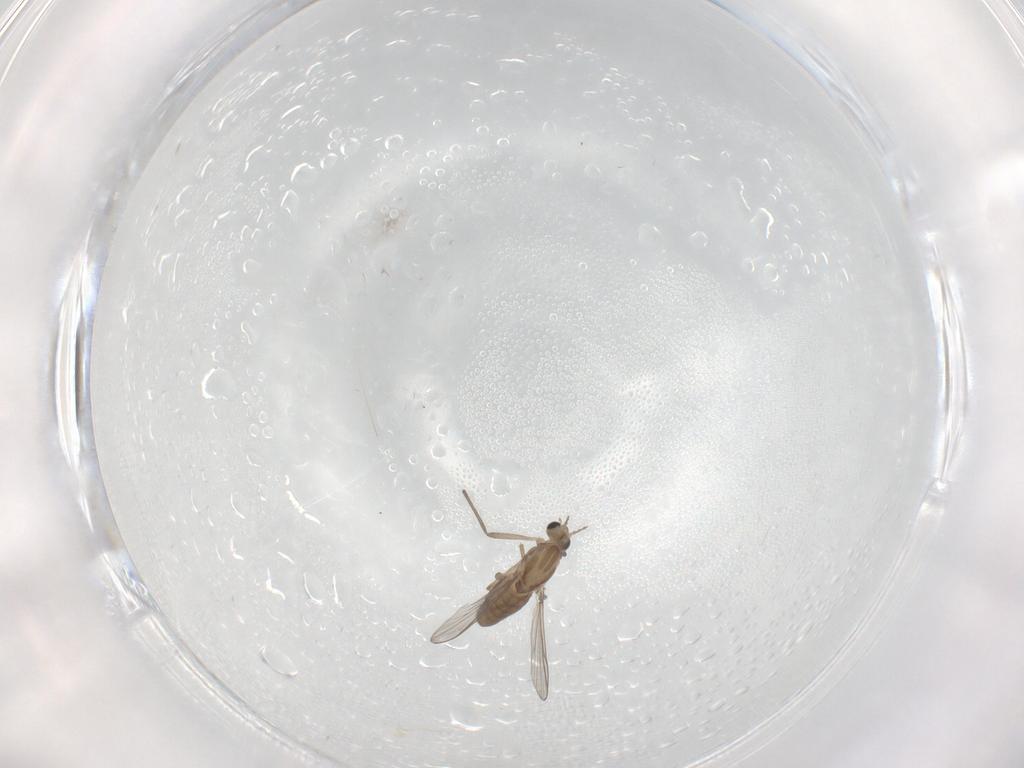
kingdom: Animalia
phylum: Arthropoda
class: Insecta
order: Diptera
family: Chironomidae
